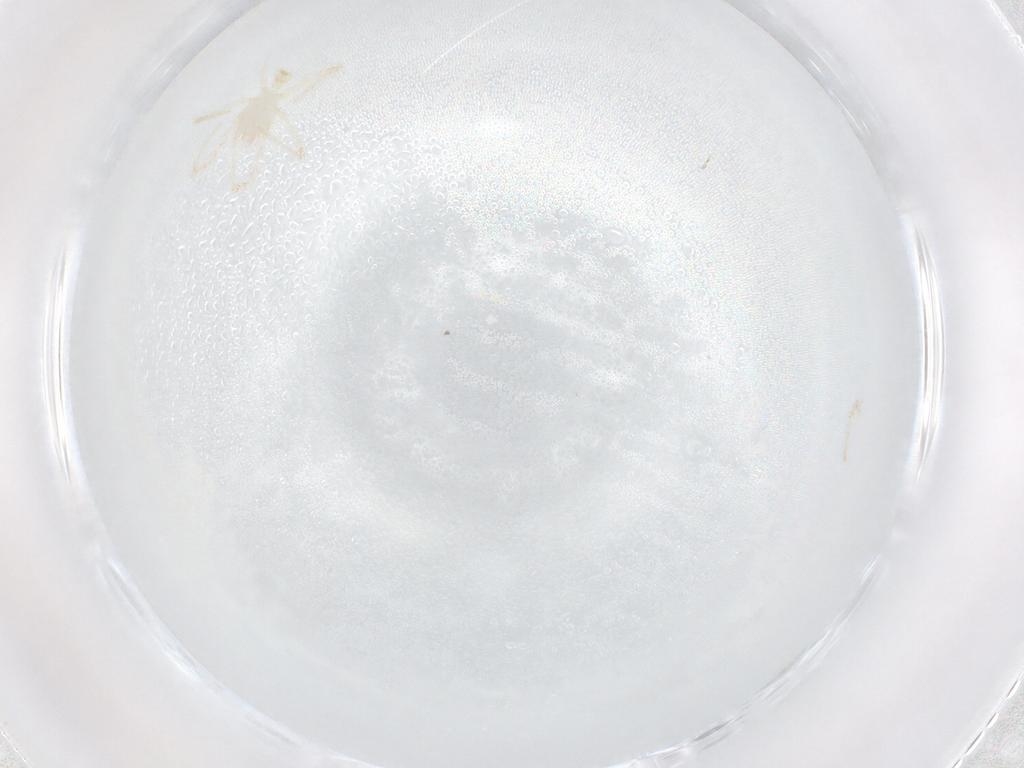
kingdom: Animalia
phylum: Arthropoda
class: Arachnida
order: Trombidiformes
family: Erythraeidae
